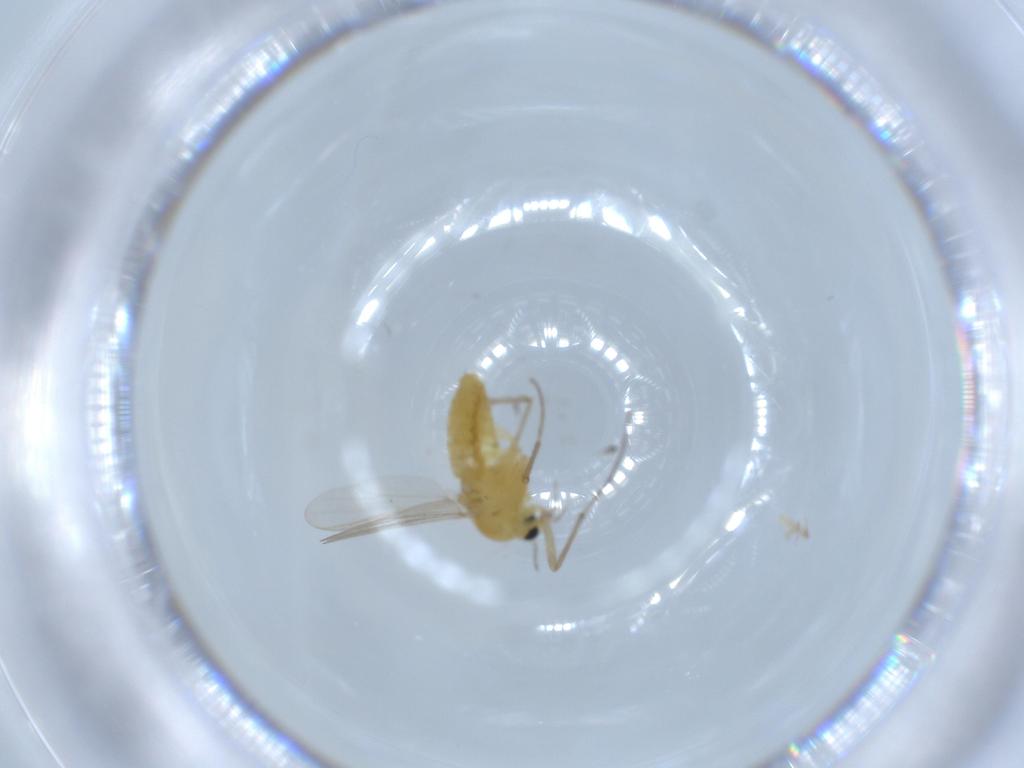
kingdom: Animalia
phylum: Arthropoda
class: Insecta
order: Diptera
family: Chironomidae
